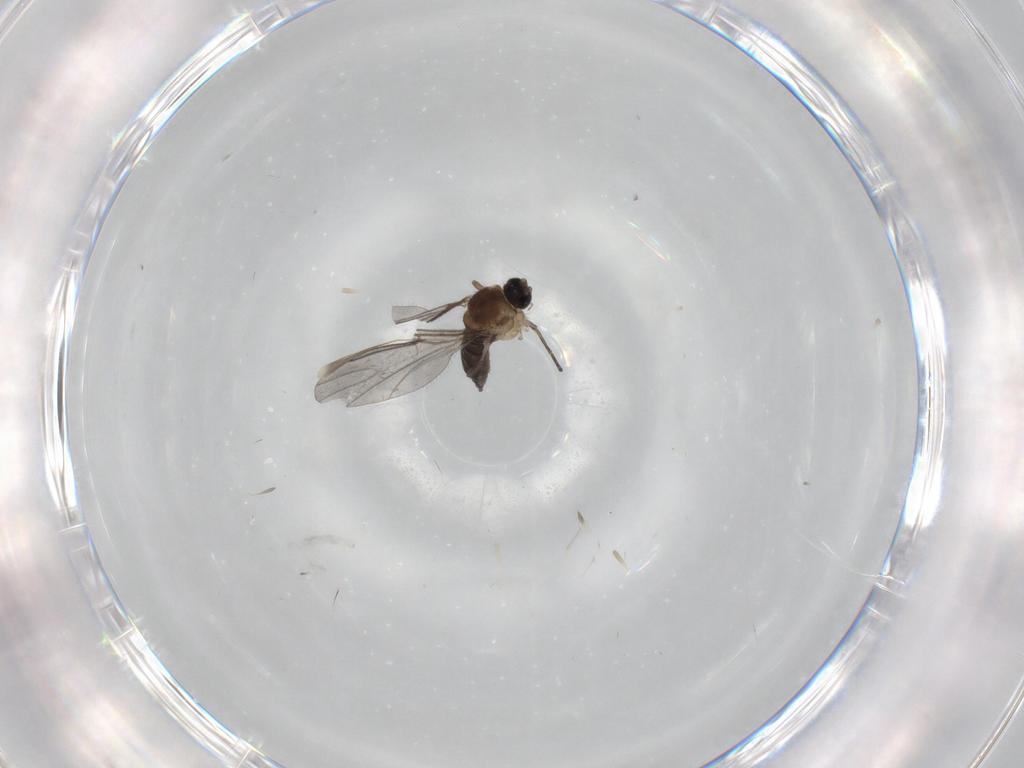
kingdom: Animalia
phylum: Arthropoda
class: Insecta
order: Diptera
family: Sciaridae
